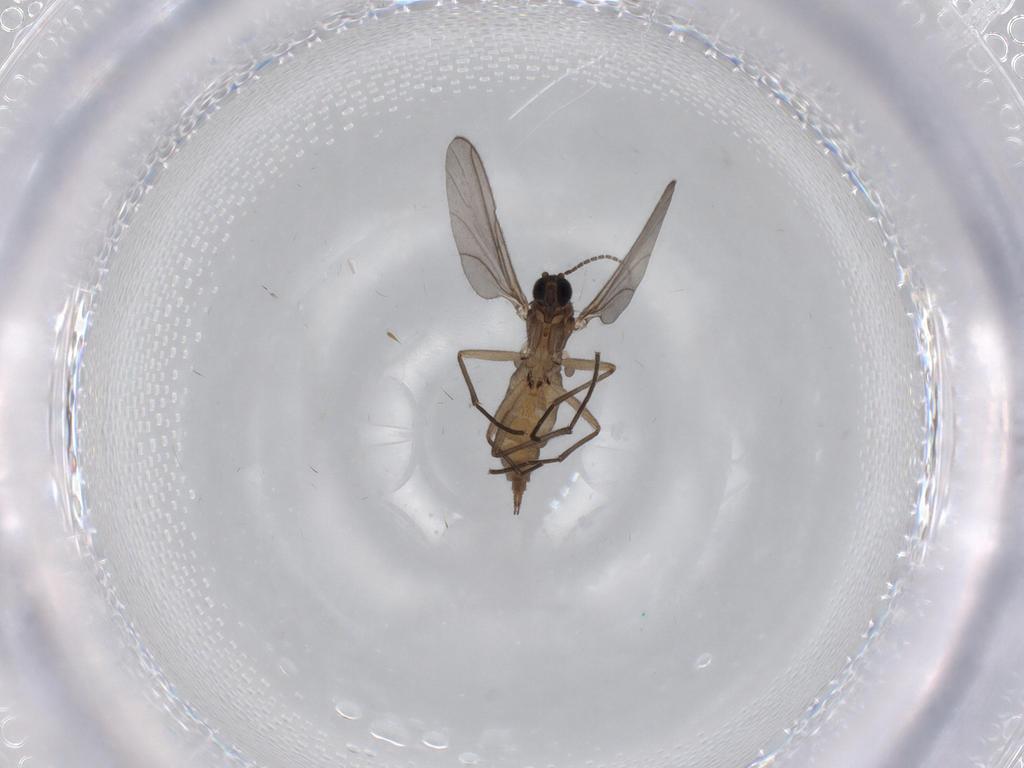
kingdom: Animalia
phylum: Arthropoda
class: Insecta
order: Diptera
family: Sciaridae
